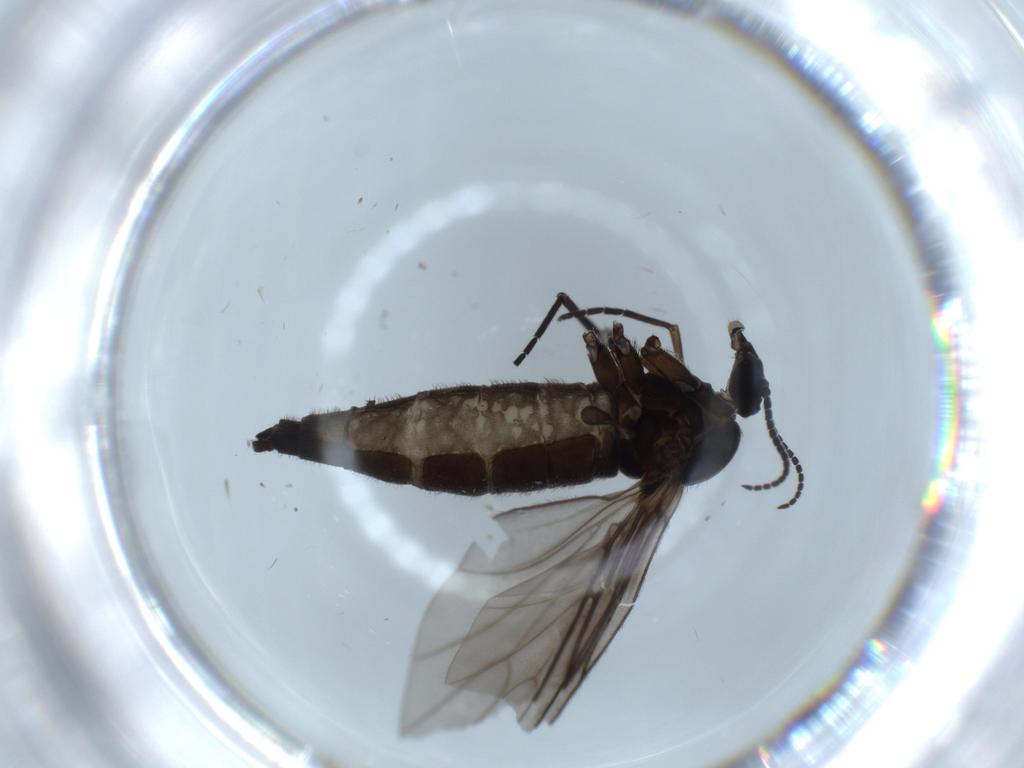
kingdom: Animalia
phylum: Arthropoda
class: Insecta
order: Diptera
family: Sciaridae
